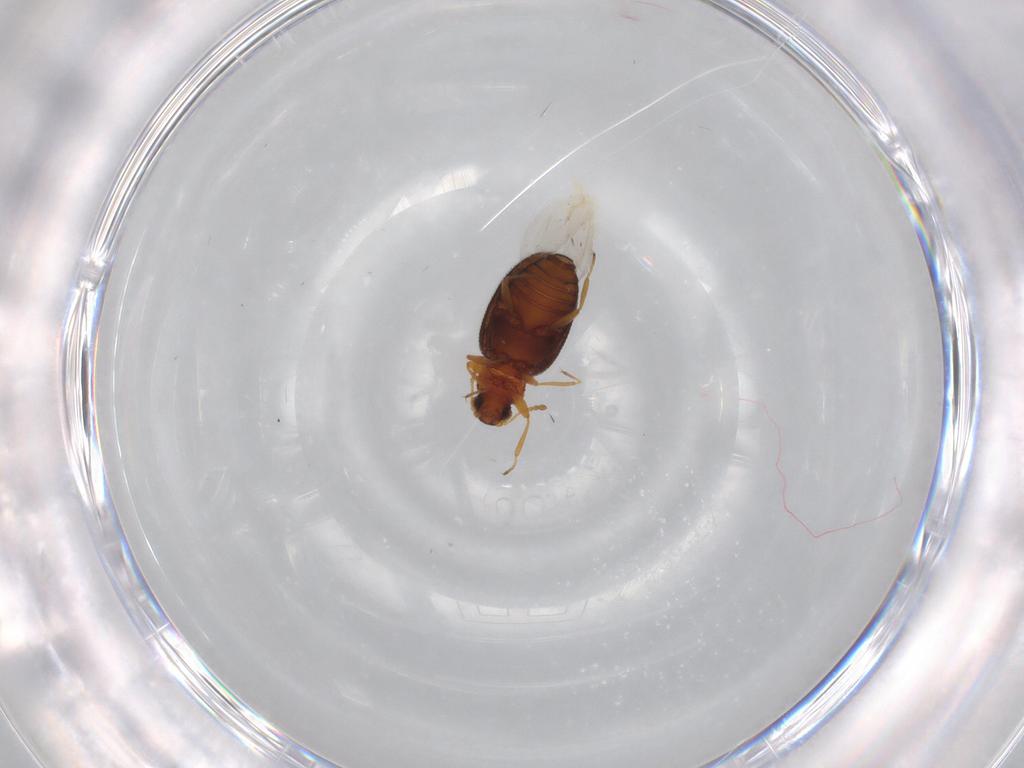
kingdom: Animalia
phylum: Arthropoda
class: Insecta
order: Coleoptera
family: Latridiidae
